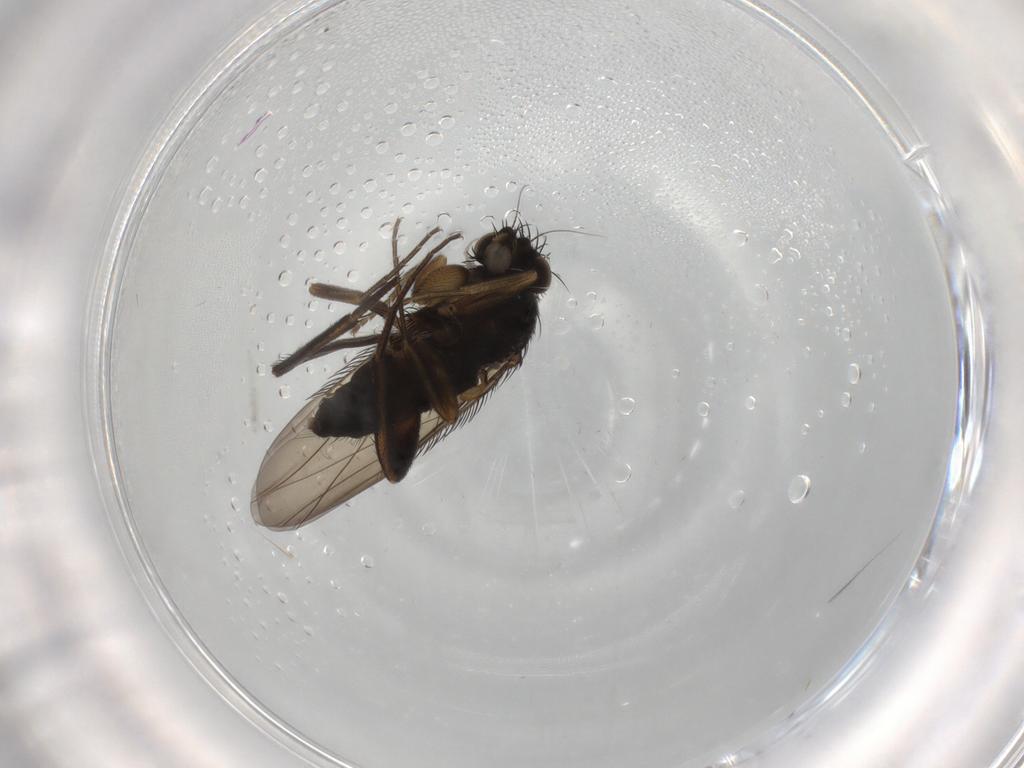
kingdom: Animalia
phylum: Arthropoda
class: Insecta
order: Diptera
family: Phoridae
